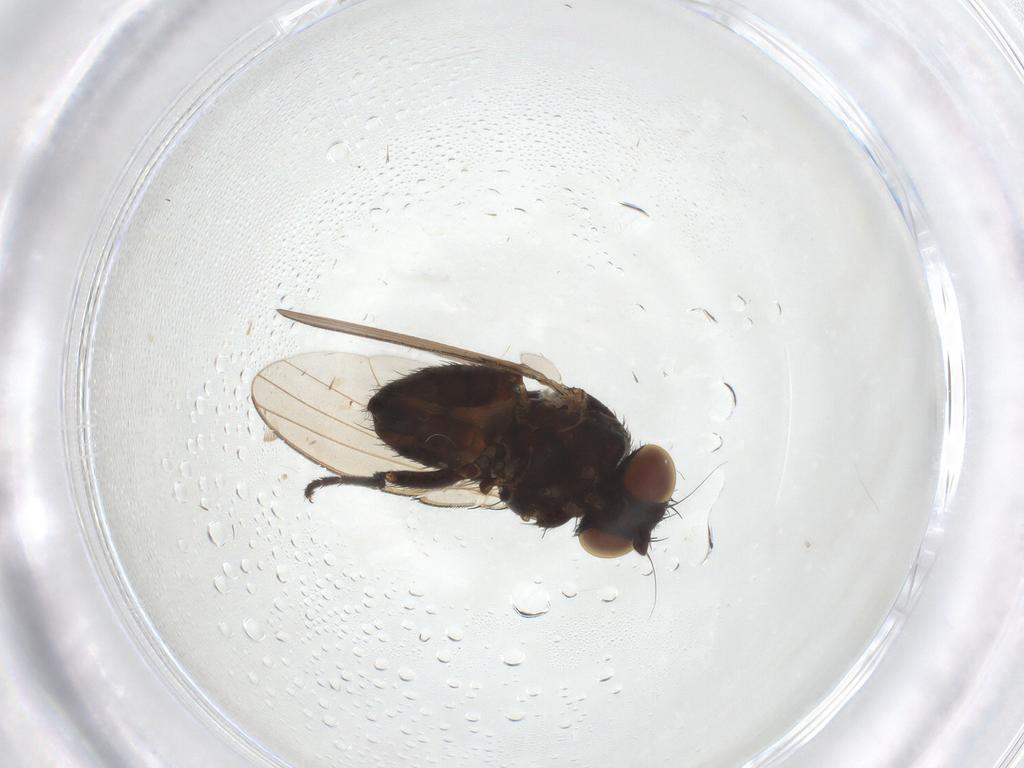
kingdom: Animalia
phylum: Arthropoda
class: Insecta
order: Diptera
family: Milichiidae
